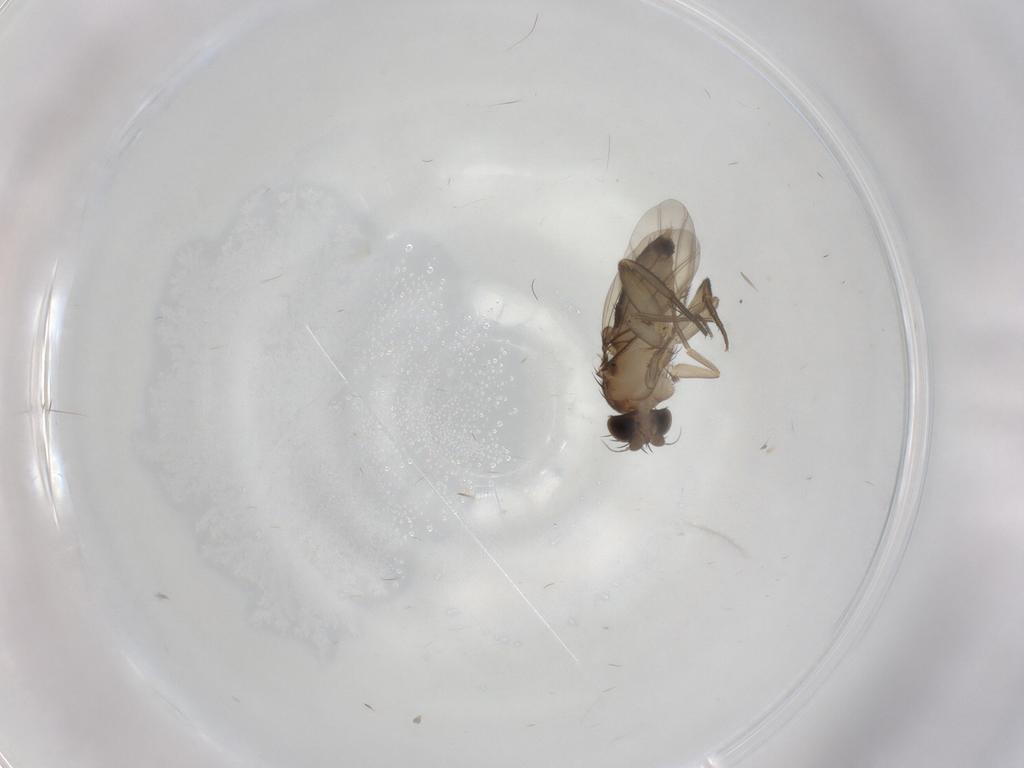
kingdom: Animalia
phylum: Arthropoda
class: Insecta
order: Diptera
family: Phoridae
